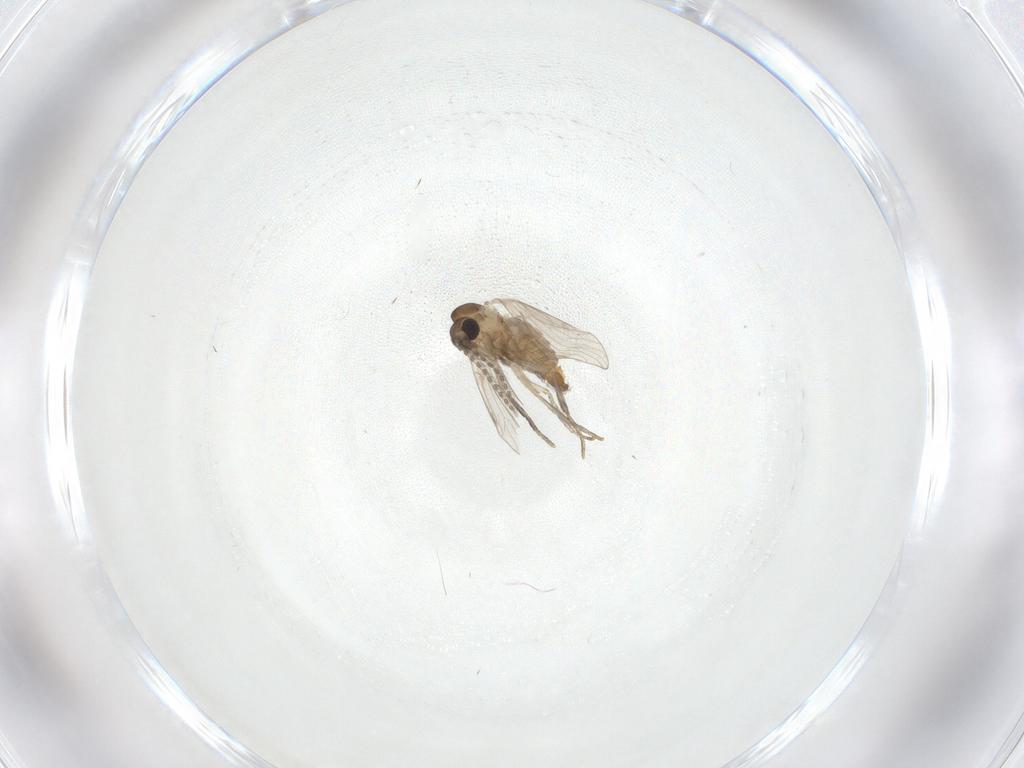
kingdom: Animalia
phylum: Arthropoda
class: Insecta
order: Diptera
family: Psychodidae
